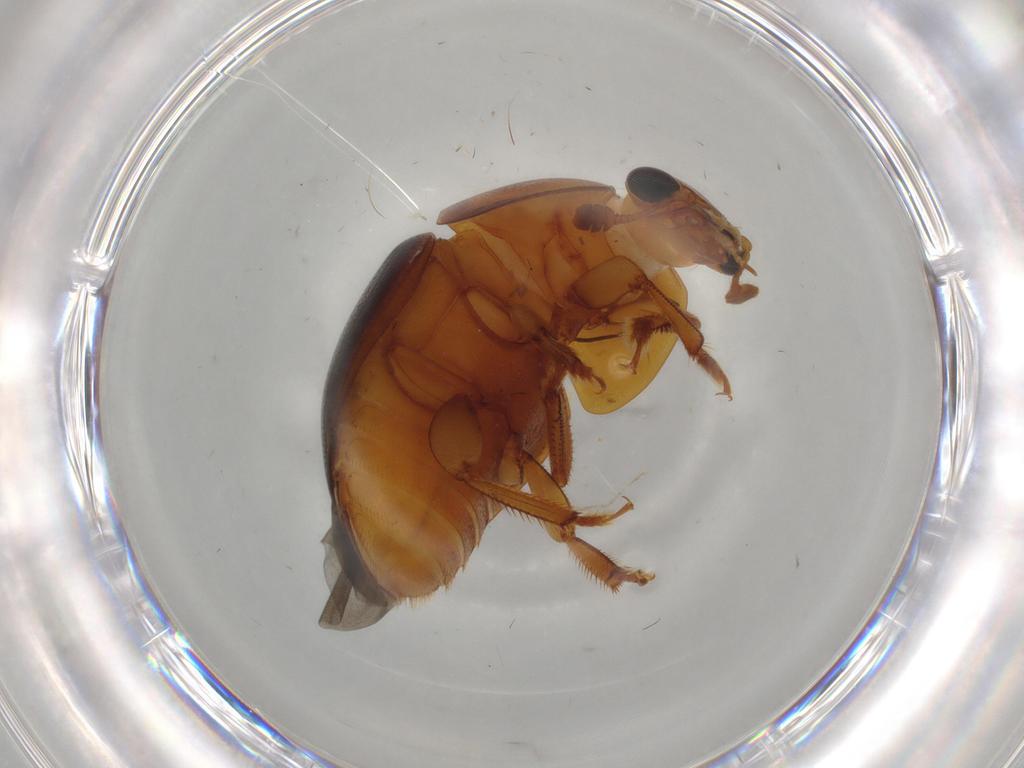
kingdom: Animalia
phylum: Arthropoda
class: Insecta
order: Coleoptera
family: Nitidulidae
